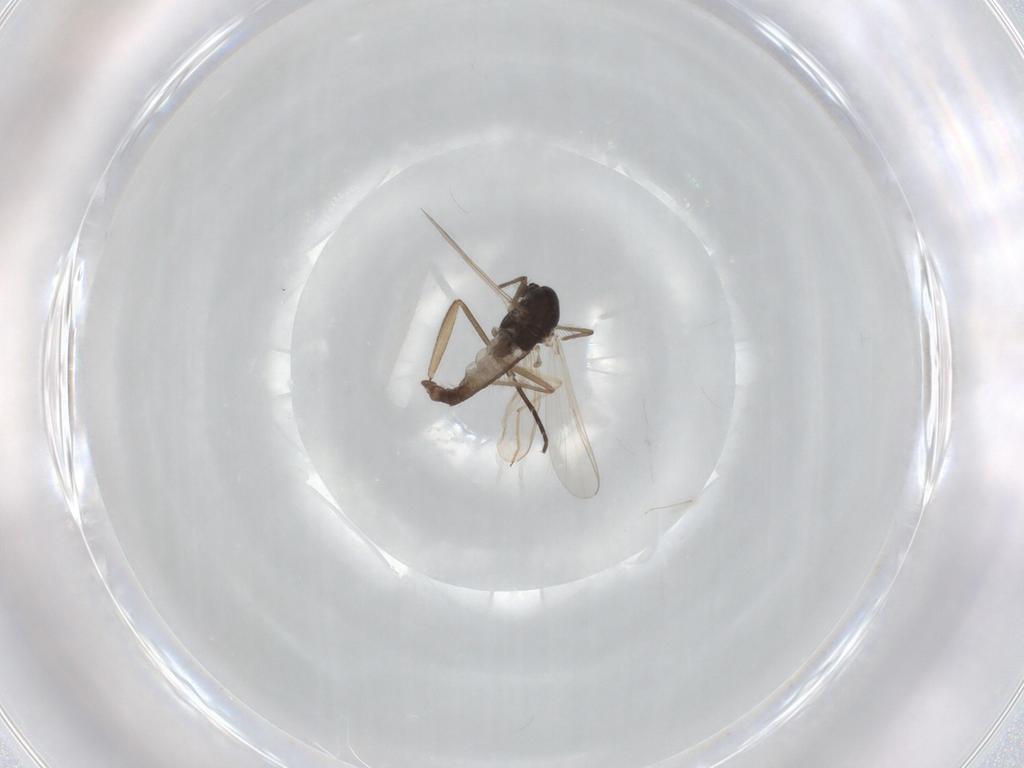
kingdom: Animalia
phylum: Arthropoda
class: Insecta
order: Diptera
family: Chironomidae
